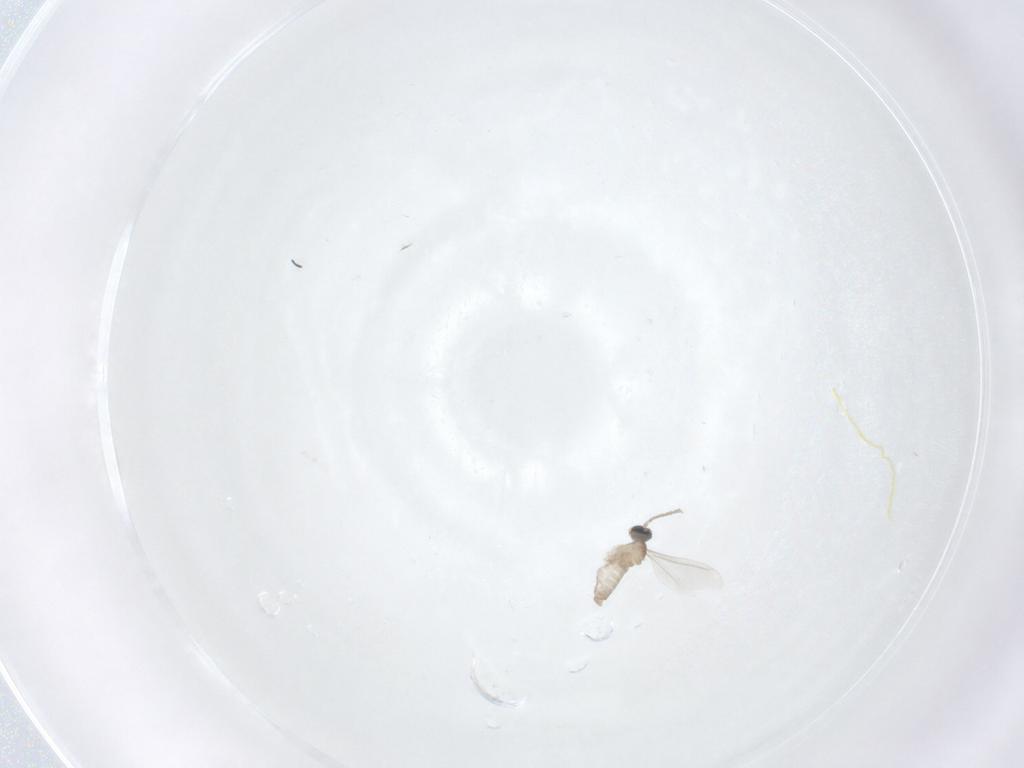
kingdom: Animalia
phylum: Arthropoda
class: Insecta
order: Diptera
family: Cecidomyiidae
